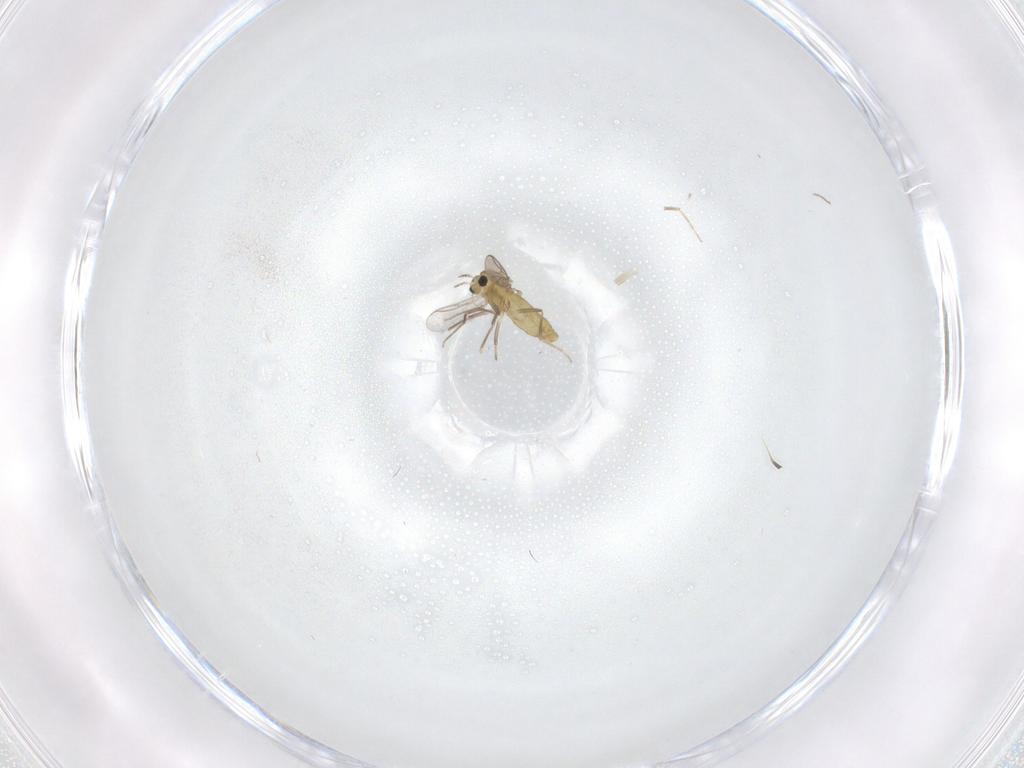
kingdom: Animalia
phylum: Arthropoda
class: Insecta
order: Diptera
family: Chironomidae
